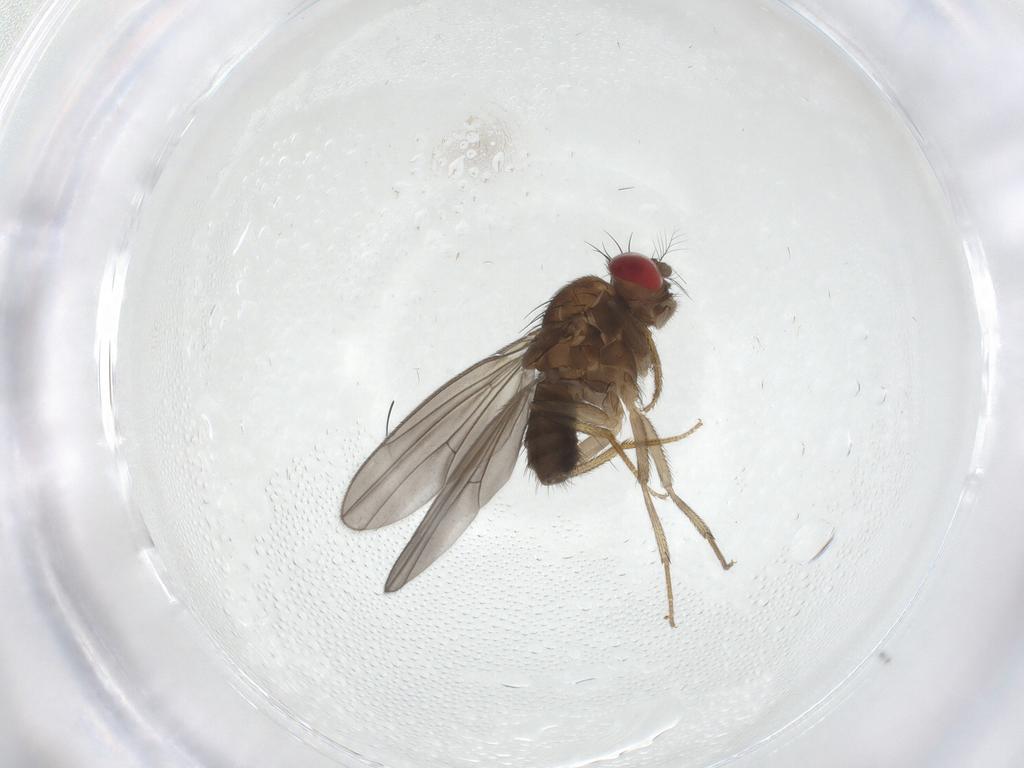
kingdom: Animalia
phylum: Arthropoda
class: Insecta
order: Diptera
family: Drosophilidae
